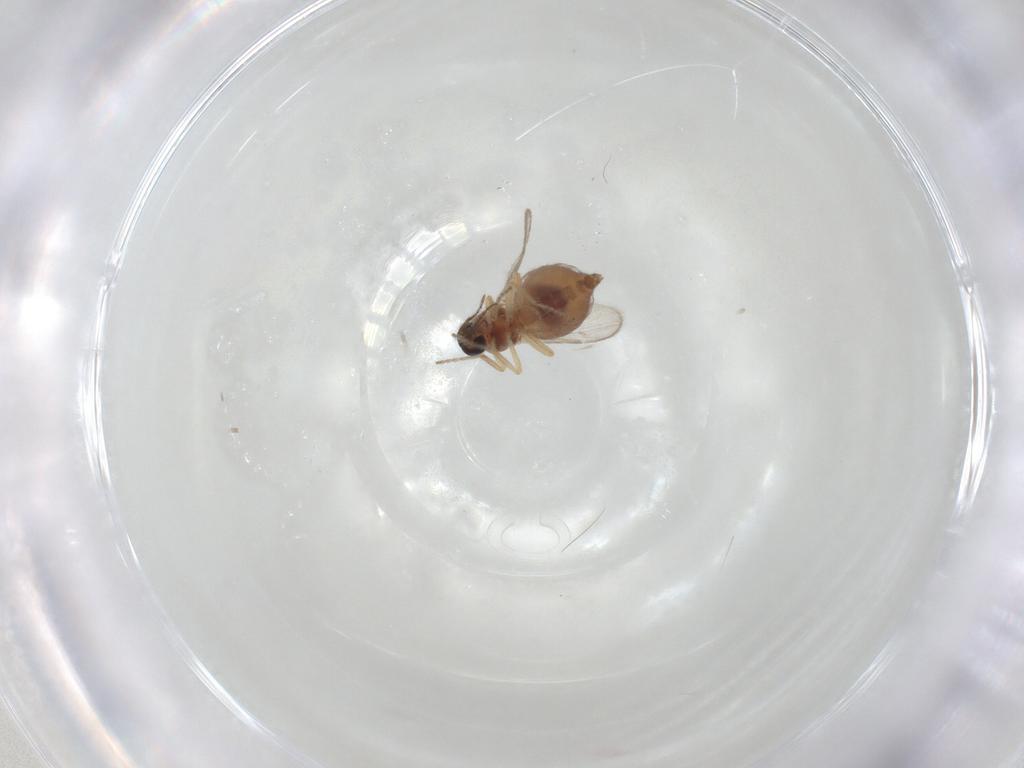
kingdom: Animalia
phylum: Arthropoda
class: Insecta
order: Diptera
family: Ceratopogonidae
